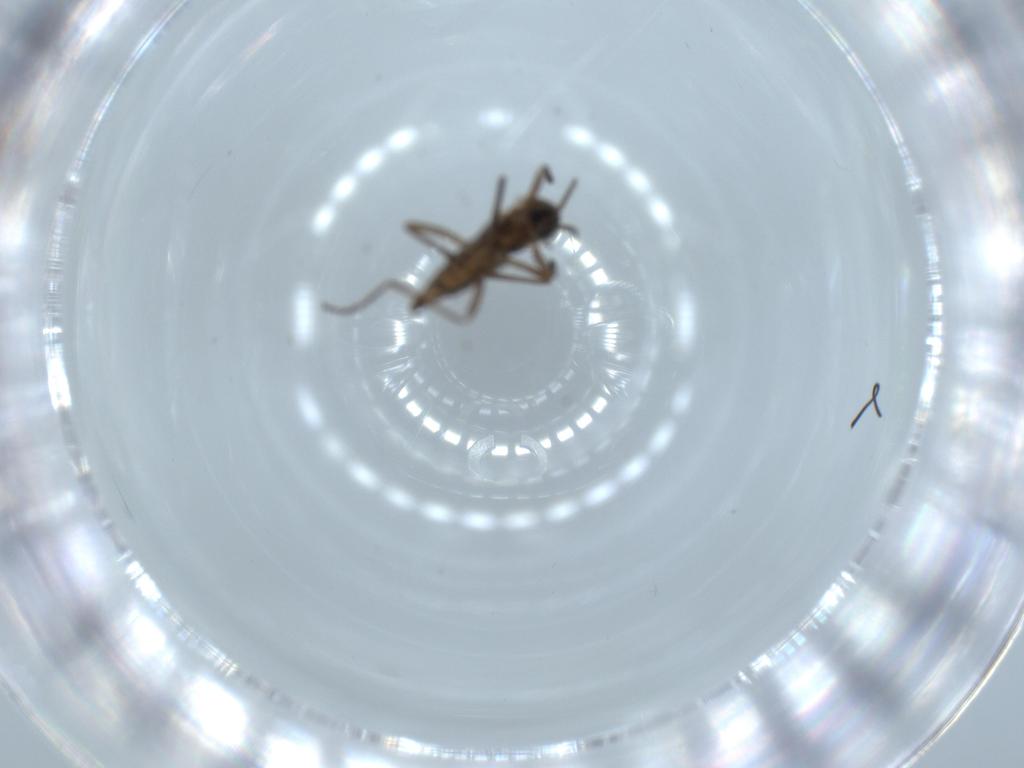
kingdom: Animalia
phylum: Arthropoda
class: Insecta
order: Diptera
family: Cecidomyiidae
